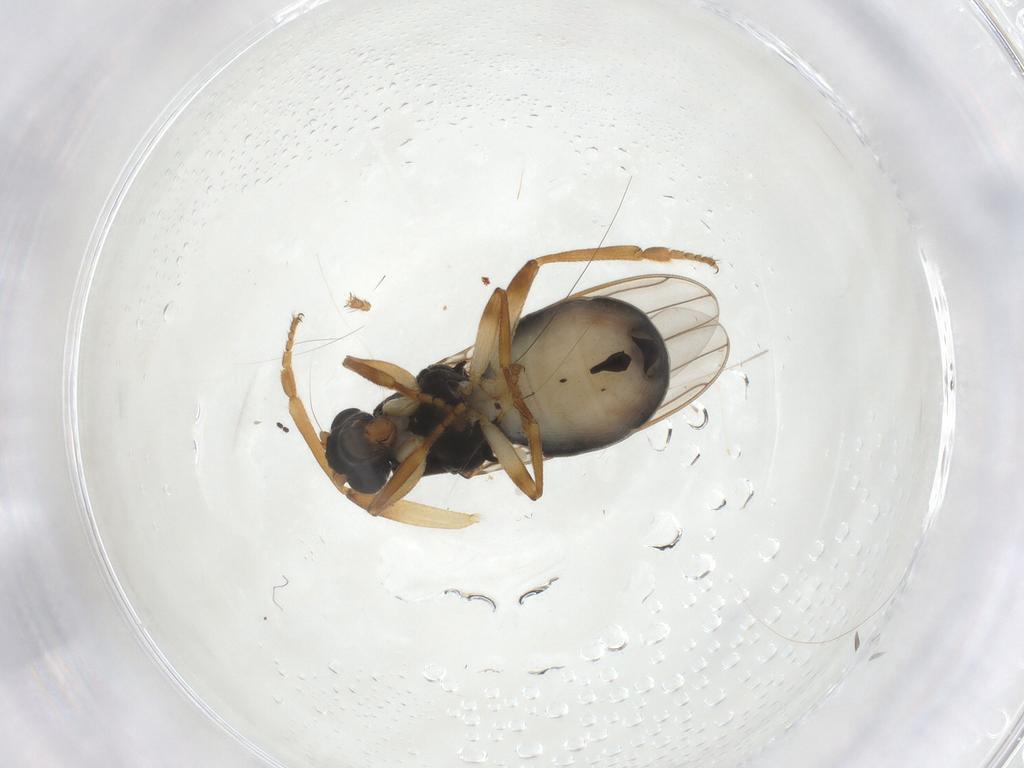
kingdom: Animalia
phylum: Arthropoda
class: Insecta
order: Diptera
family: Sphaeroceridae
